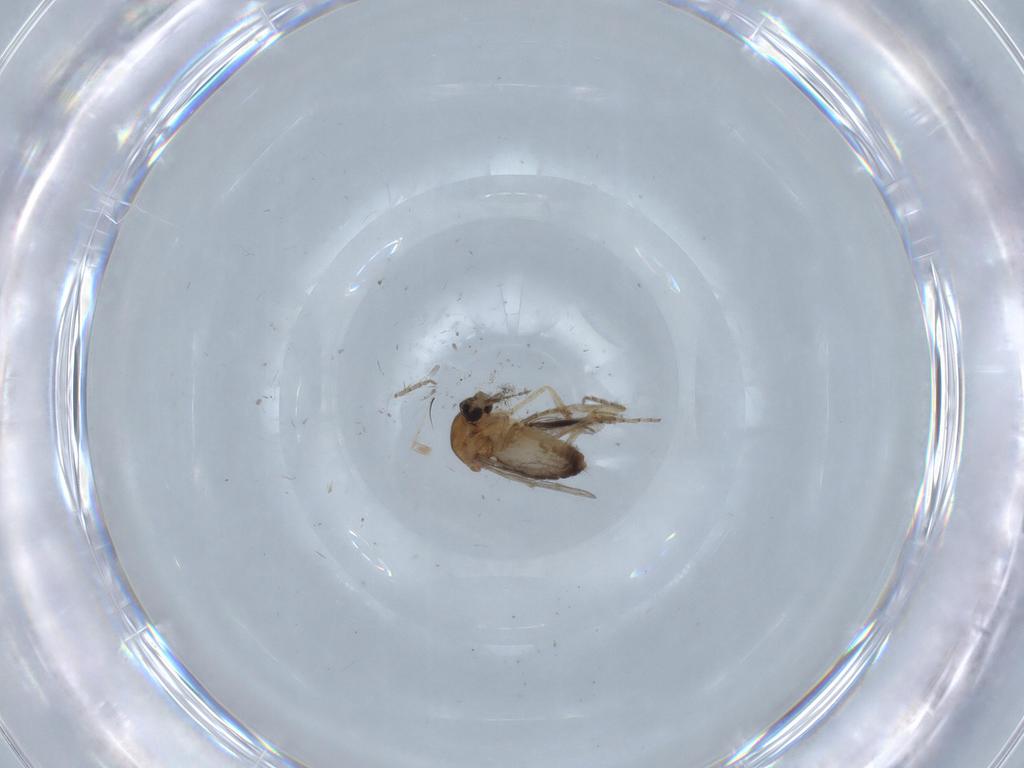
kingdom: Animalia
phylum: Arthropoda
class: Insecta
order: Diptera
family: Ceratopogonidae
